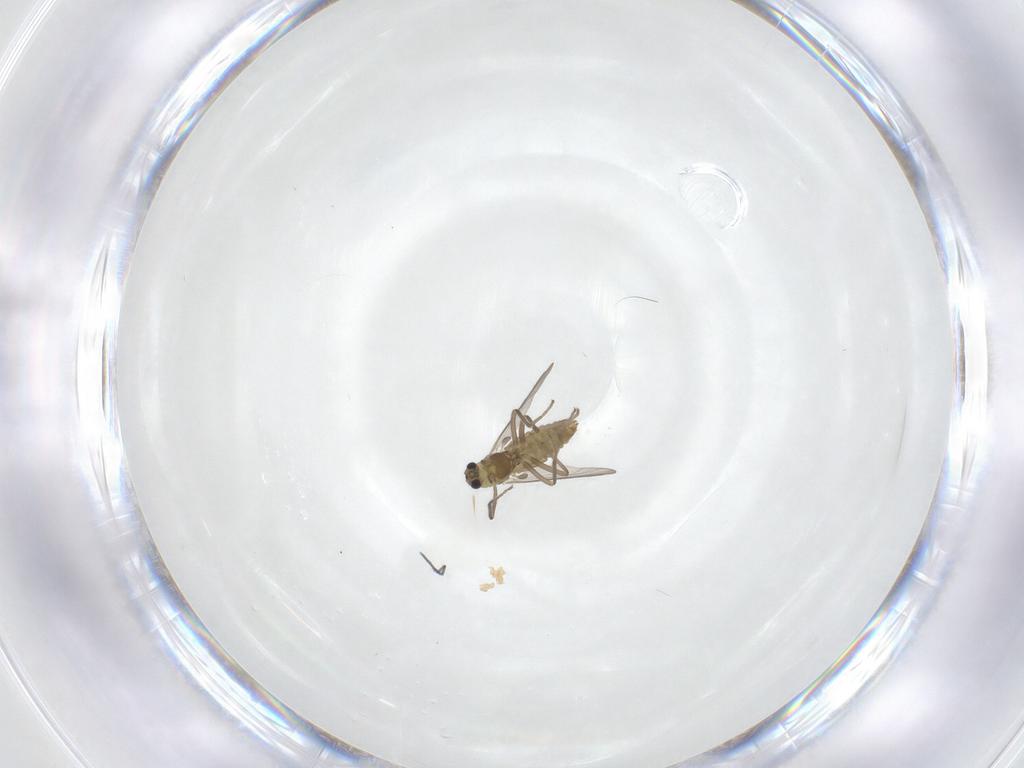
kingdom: Animalia
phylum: Arthropoda
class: Insecta
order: Diptera
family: Chironomidae
